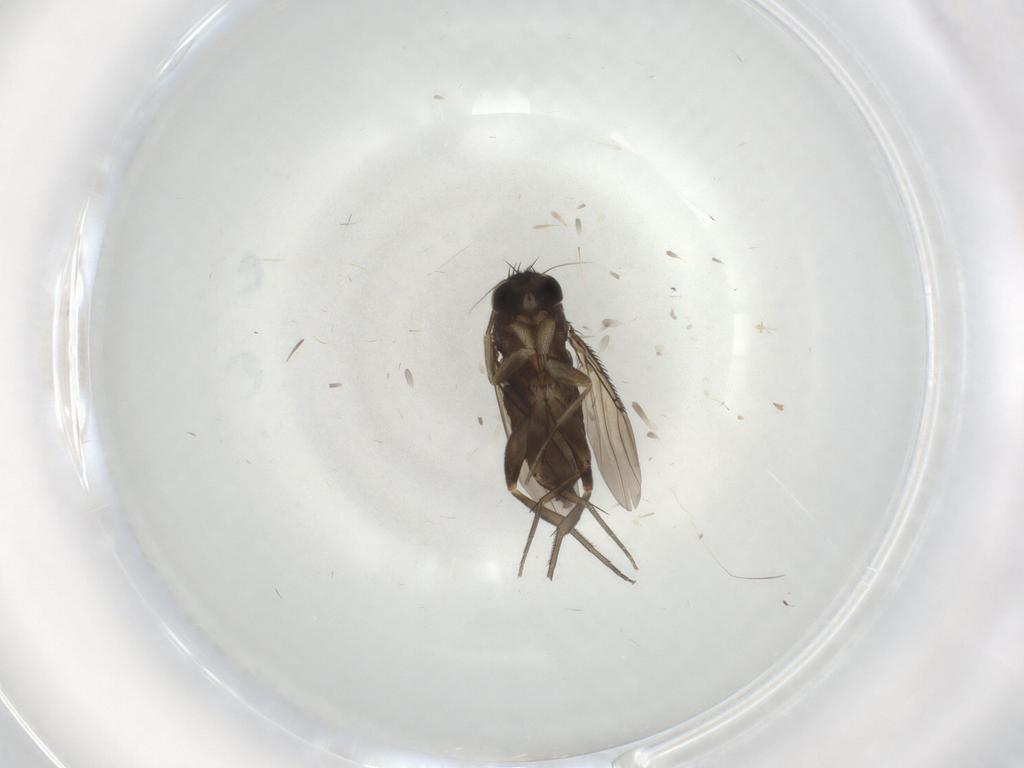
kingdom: Animalia
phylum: Arthropoda
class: Insecta
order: Diptera
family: Phoridae
